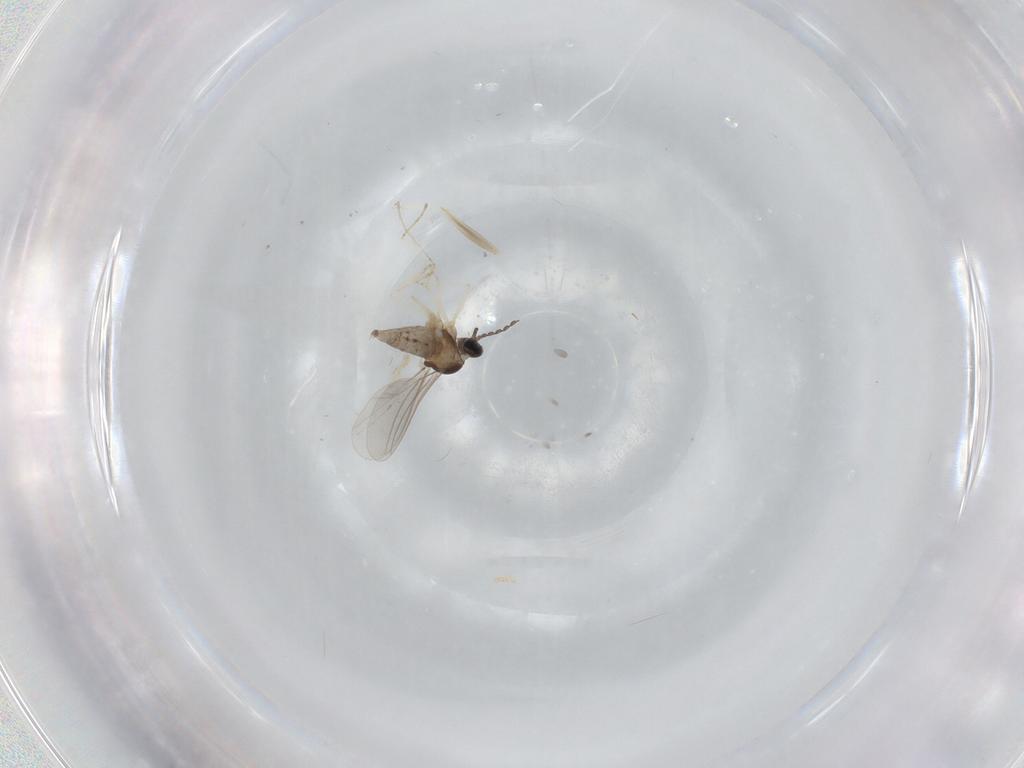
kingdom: Animalia
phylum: Arthropoda
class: Insecta
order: Diptera
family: Cecidomyiidae
